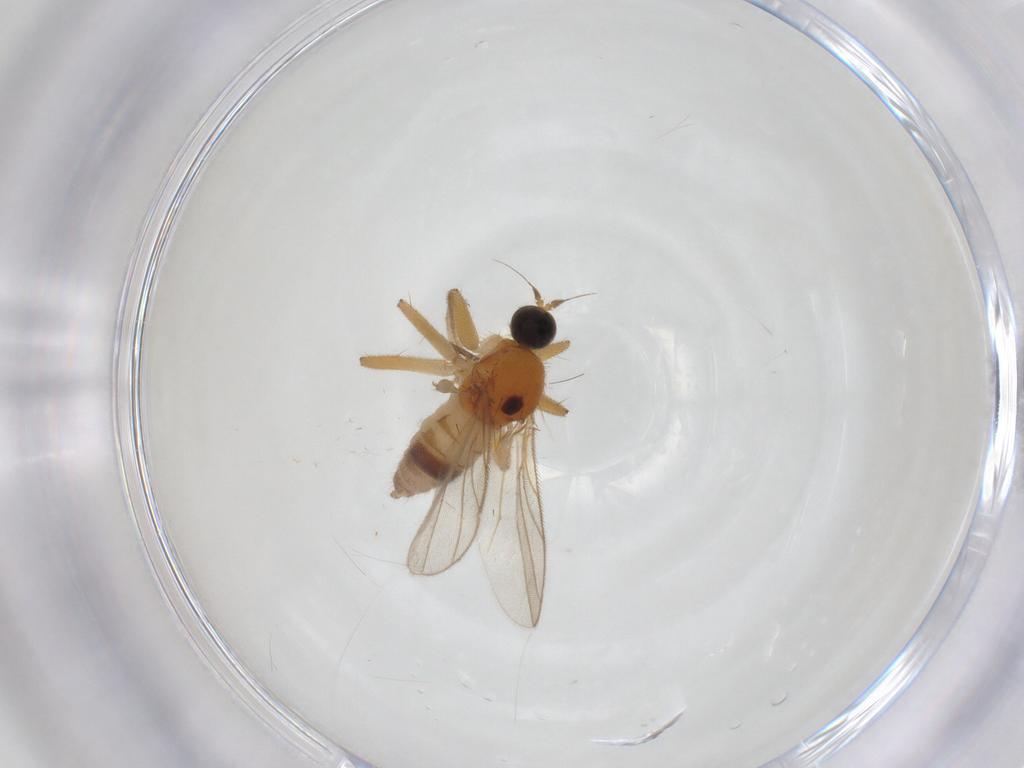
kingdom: Animalia
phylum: Arthropoda
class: Insecta
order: Diptera
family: Hybotidae
